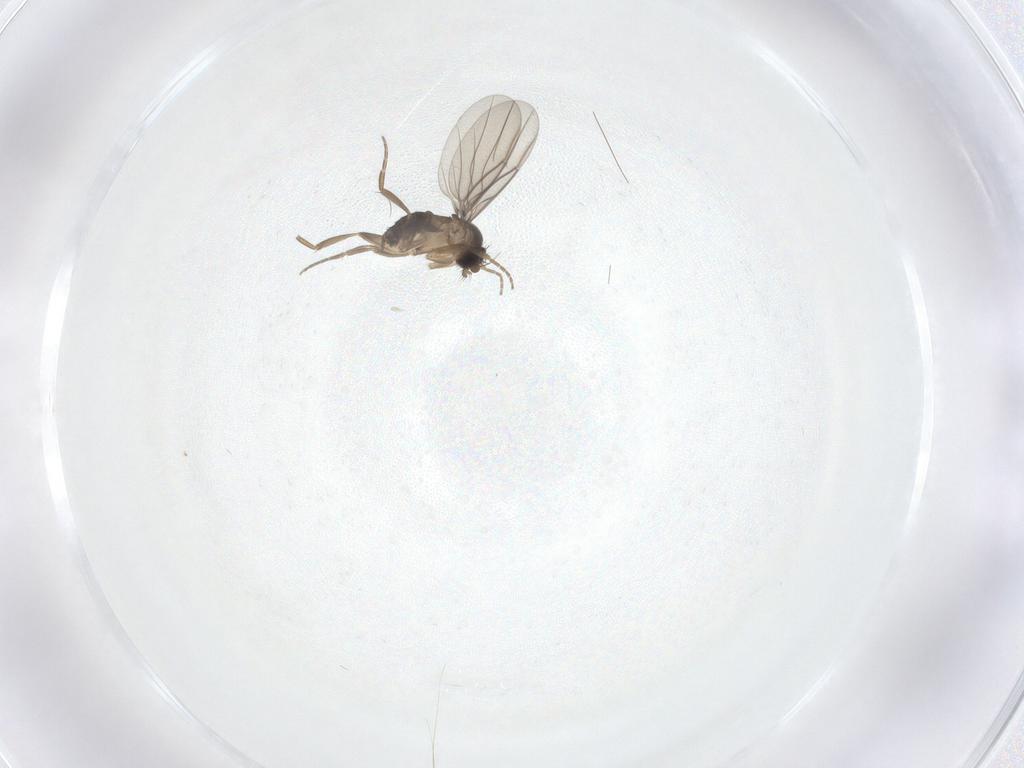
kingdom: Animalia
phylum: Arthropoda
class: Insecta
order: Diptera
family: Phoridae
